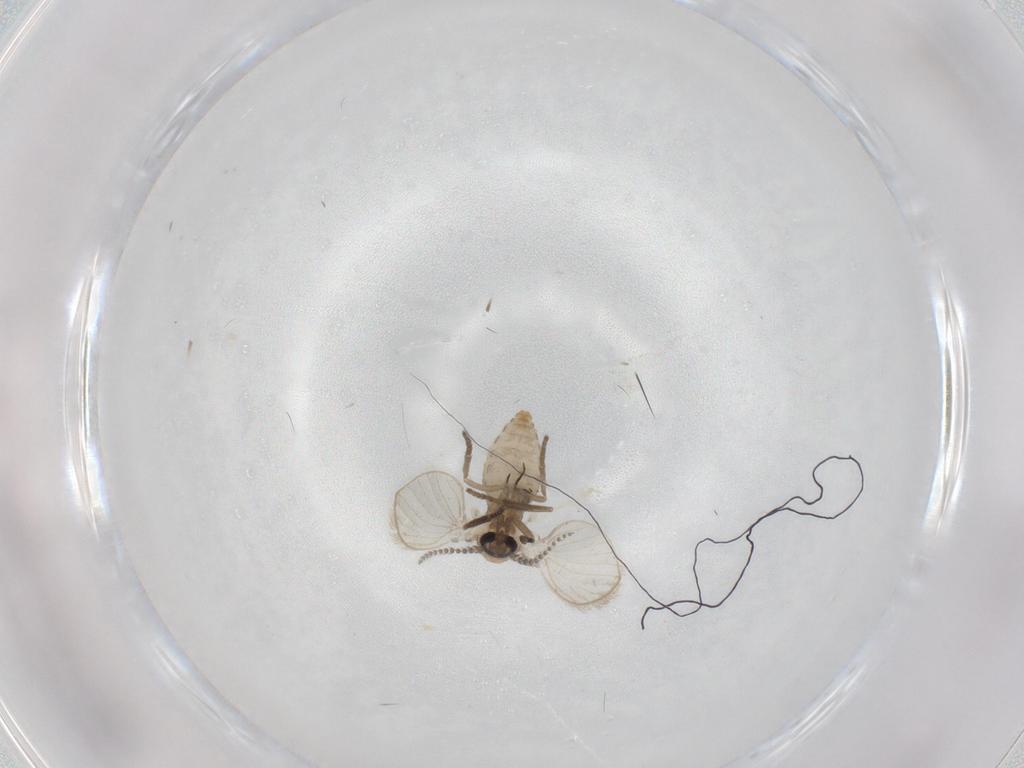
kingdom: Animalia
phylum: Arthropoda
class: Insecta
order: Diptera
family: Psychodidae
